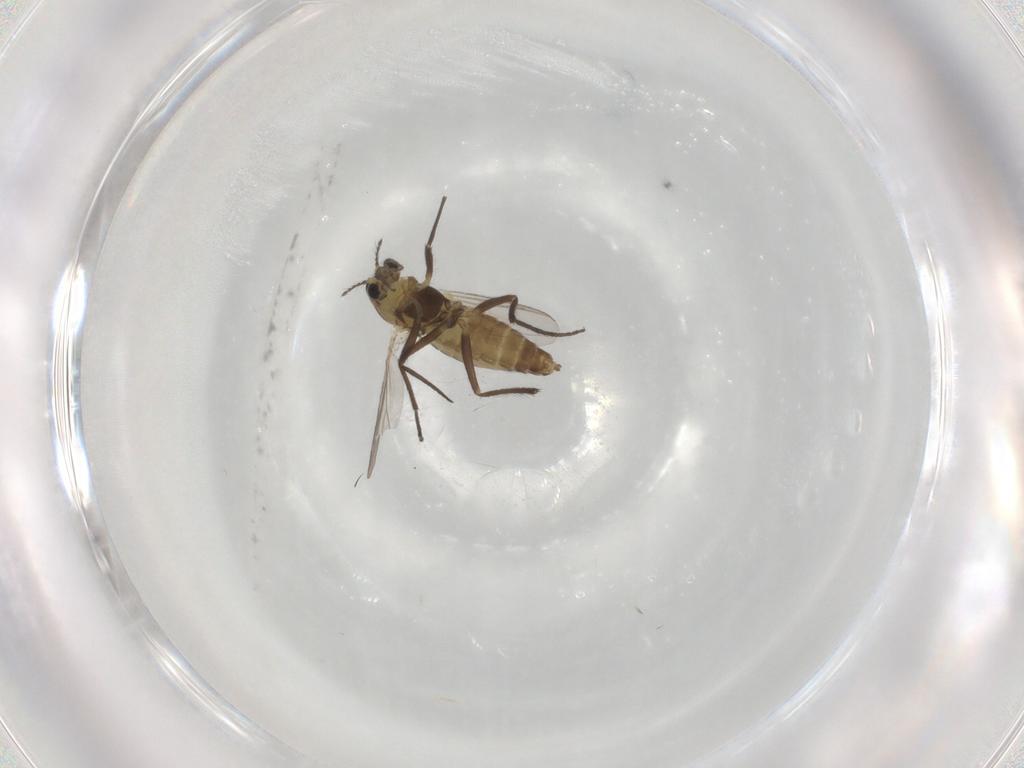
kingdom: Animalia
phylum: Arthropoda
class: Insecta
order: Diptera
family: Chironomidae
